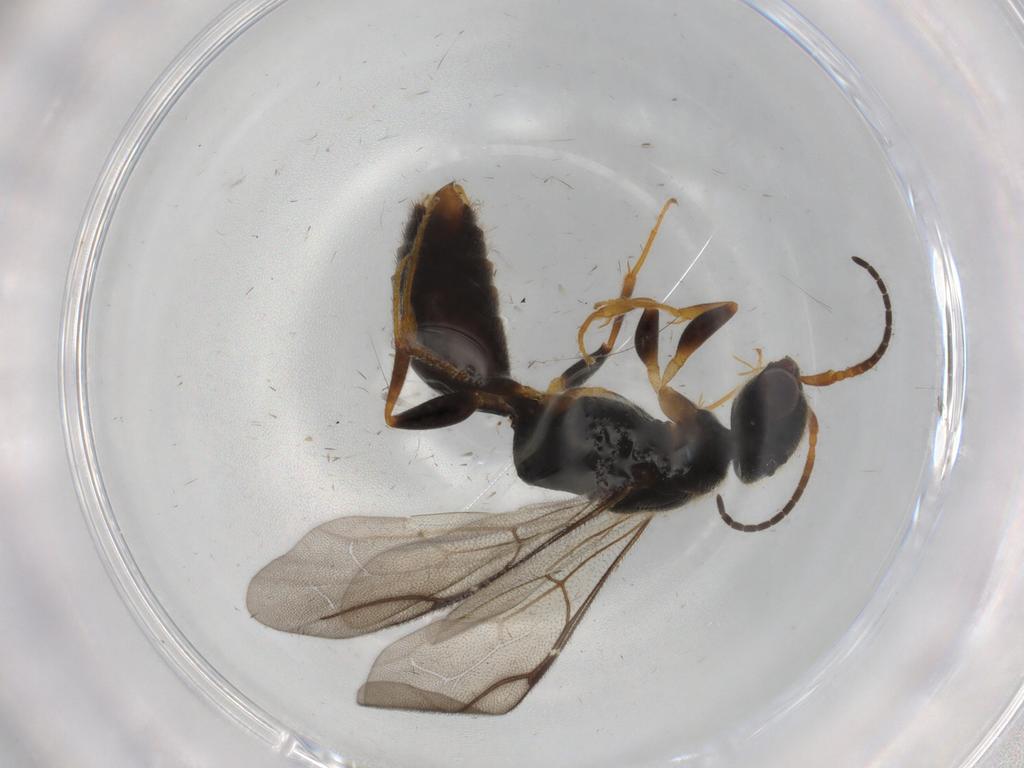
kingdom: Animalia
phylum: Arthropoda
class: Insecta
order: Hymenoptera
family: Bethylidae
